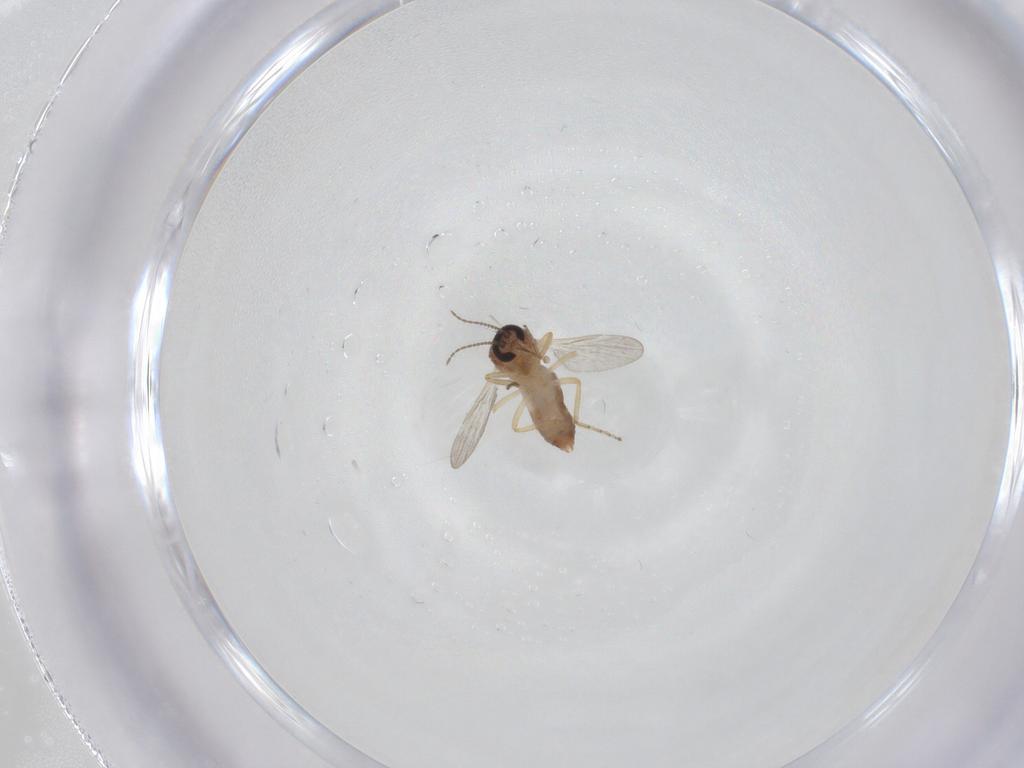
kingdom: Animalia
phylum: Arthropoda
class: Insecta
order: Diptera
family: Ceratopogonidae
